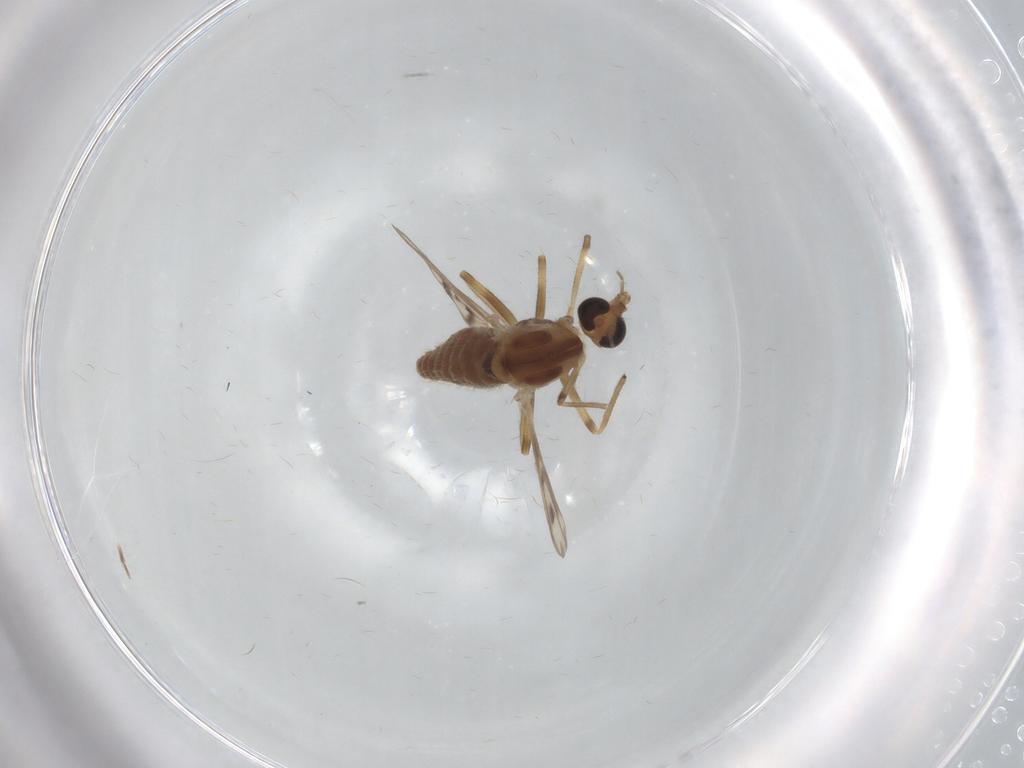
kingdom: Animalia
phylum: Arthropoda
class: Insecta
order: Diptera
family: Chironomidae
